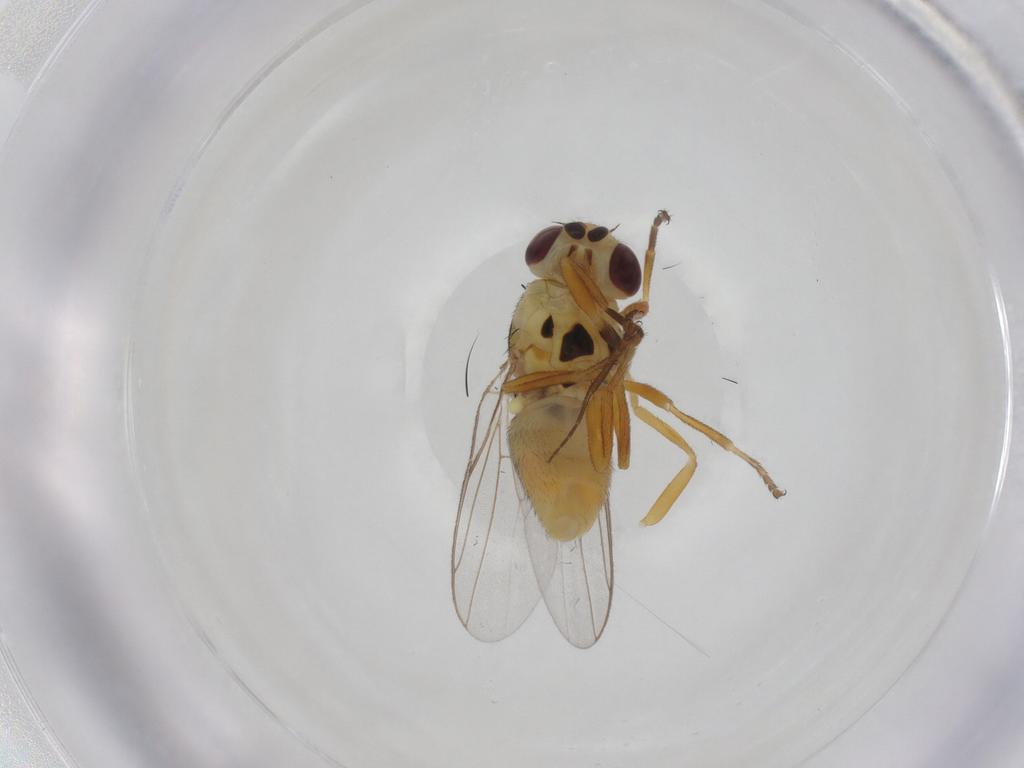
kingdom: Animalia
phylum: Arthropoda
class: Insecta
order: Diptera
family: Chloropidae
